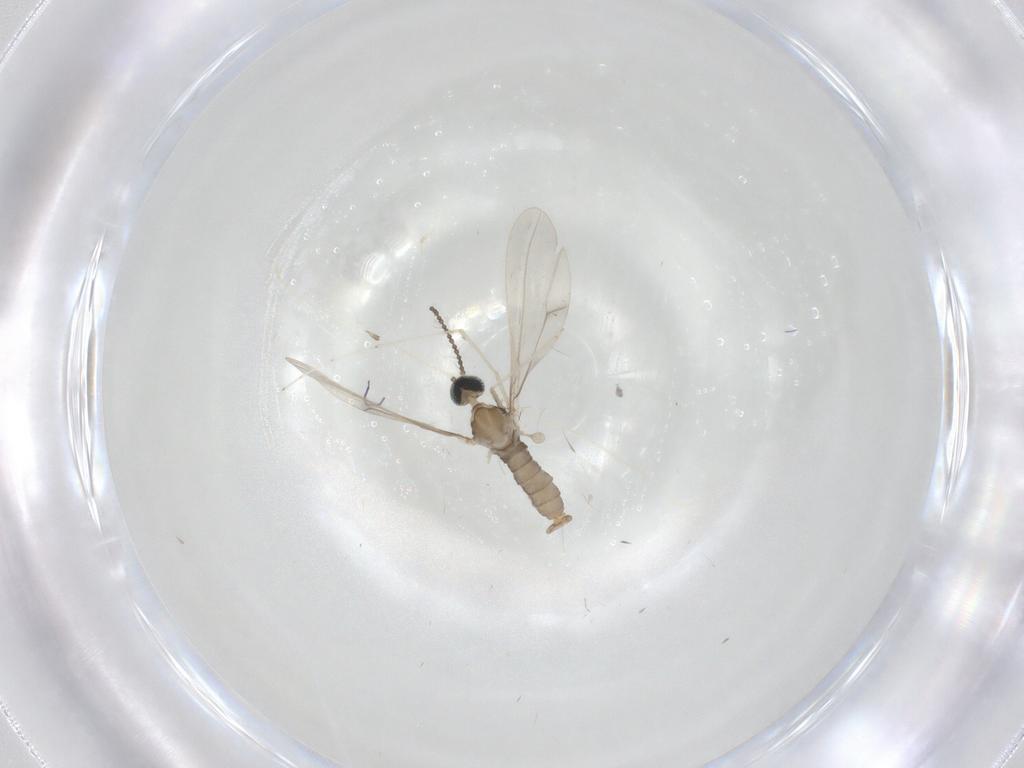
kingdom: Animalia
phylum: Arthropoda
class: Insecta
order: Diptera
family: Cecidomyiidae
